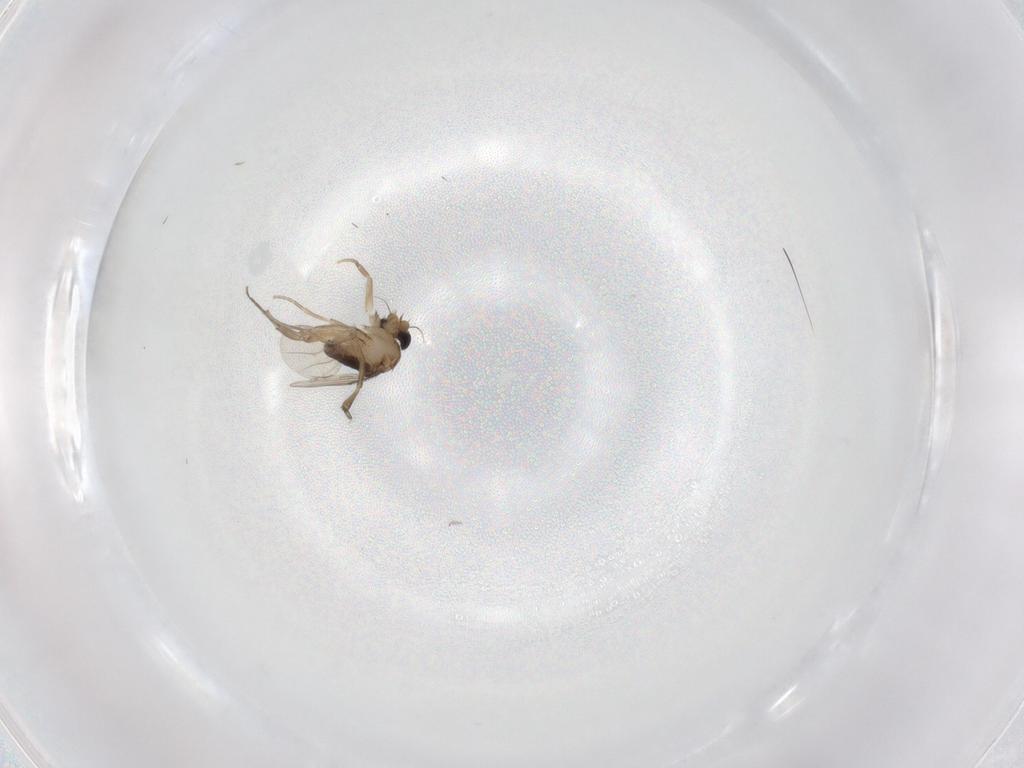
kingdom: Animalia
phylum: Arthropoda
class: Insecta
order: Diptera
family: Phoridae
